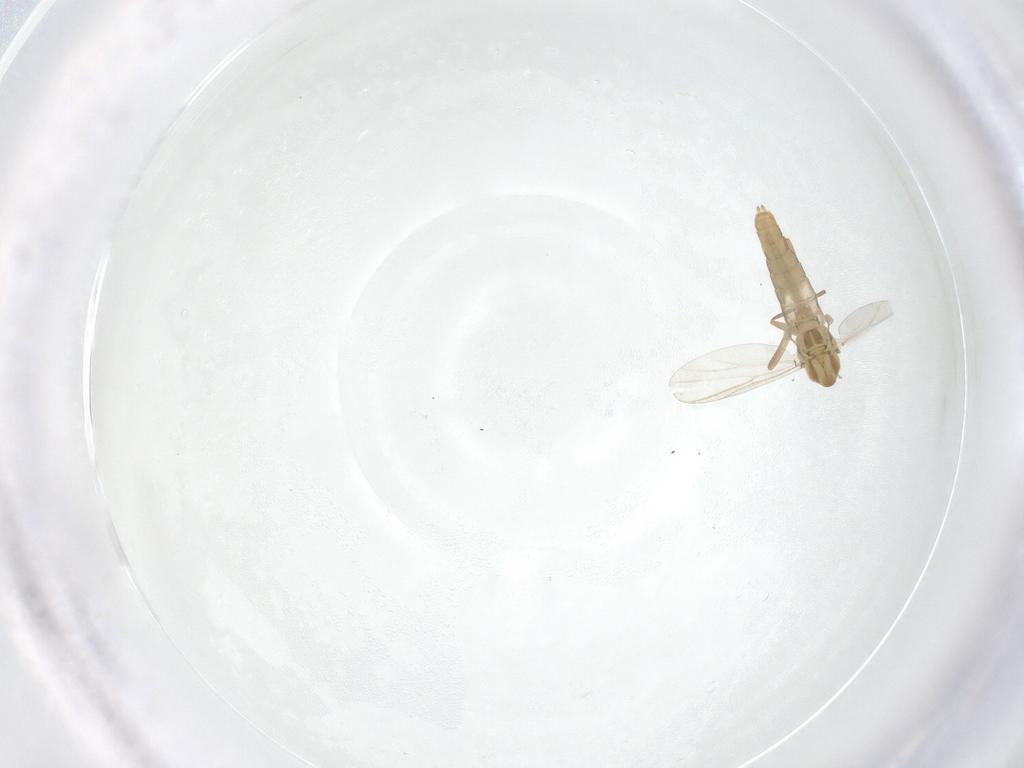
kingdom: Animalia
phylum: Arthropoda
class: Insecta
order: Diptera
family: Chironomidae
